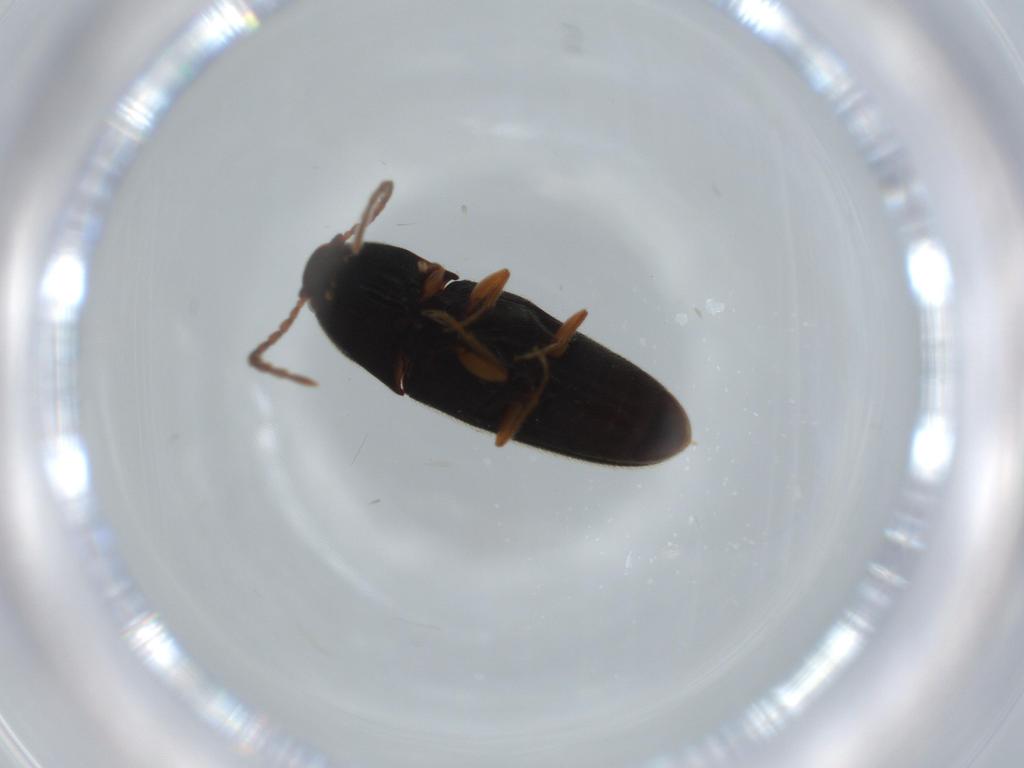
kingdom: Animalia
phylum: Arthropoda
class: Insecta
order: Coleoptera
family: Elateridae
